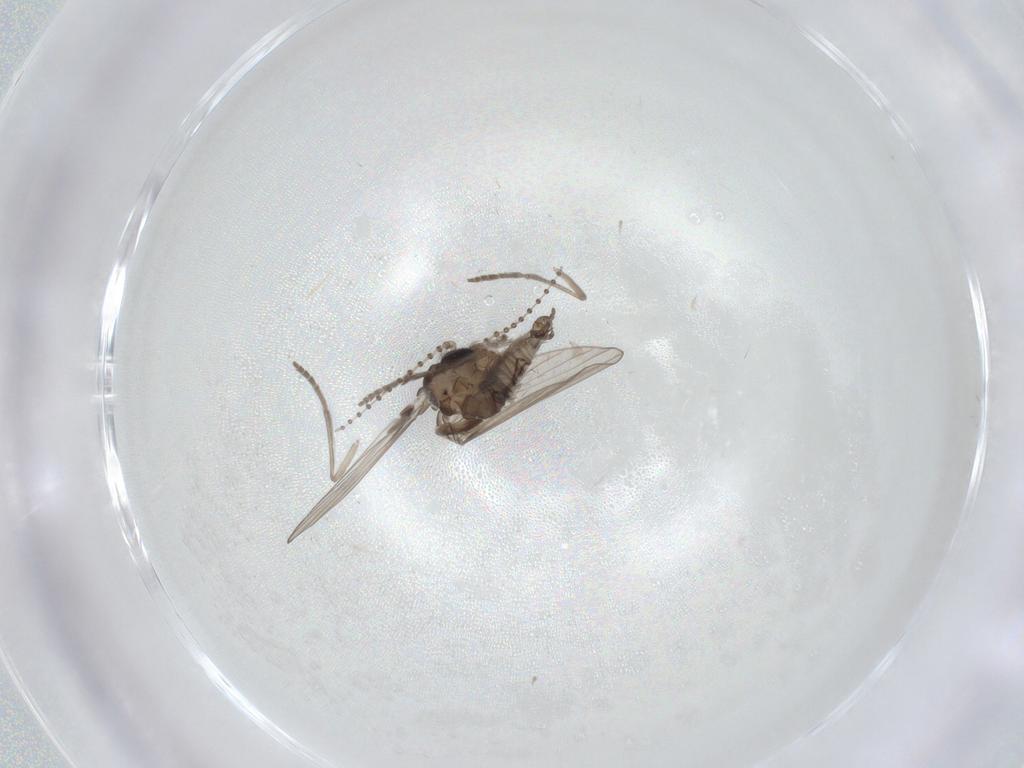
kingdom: Animalia
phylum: Arthropoda
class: Insecta
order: Diptera
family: Psychodidae
